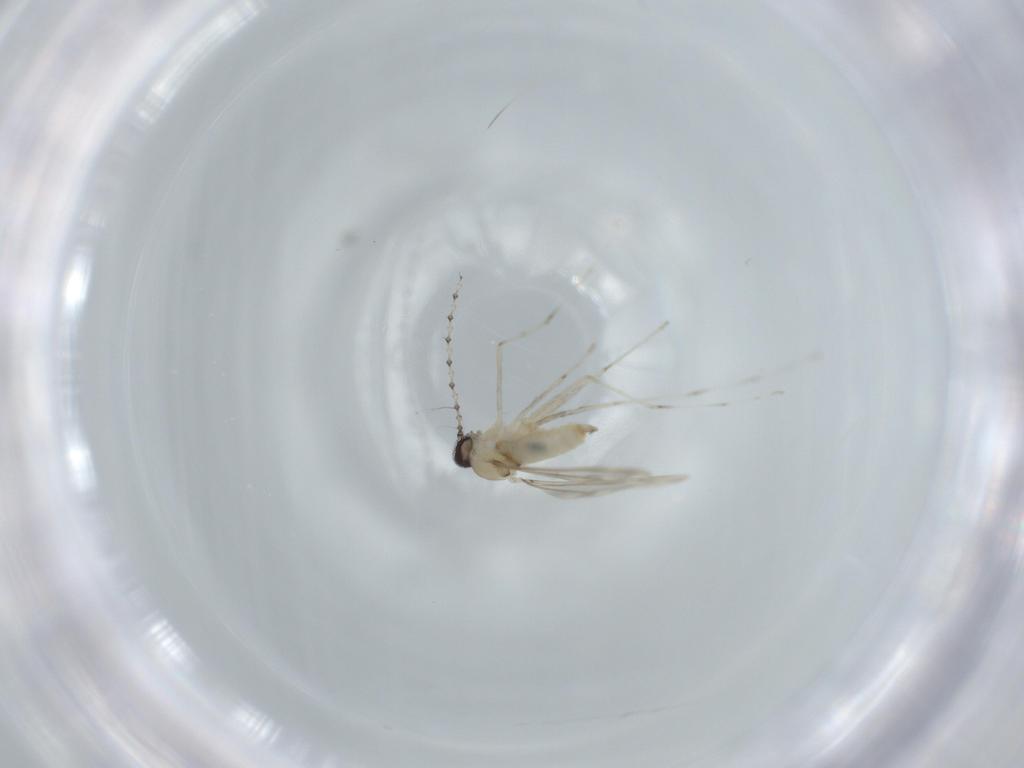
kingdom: Animalia
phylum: Arthropoda
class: Insecta
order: Diptera
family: Cecidomyiidae
